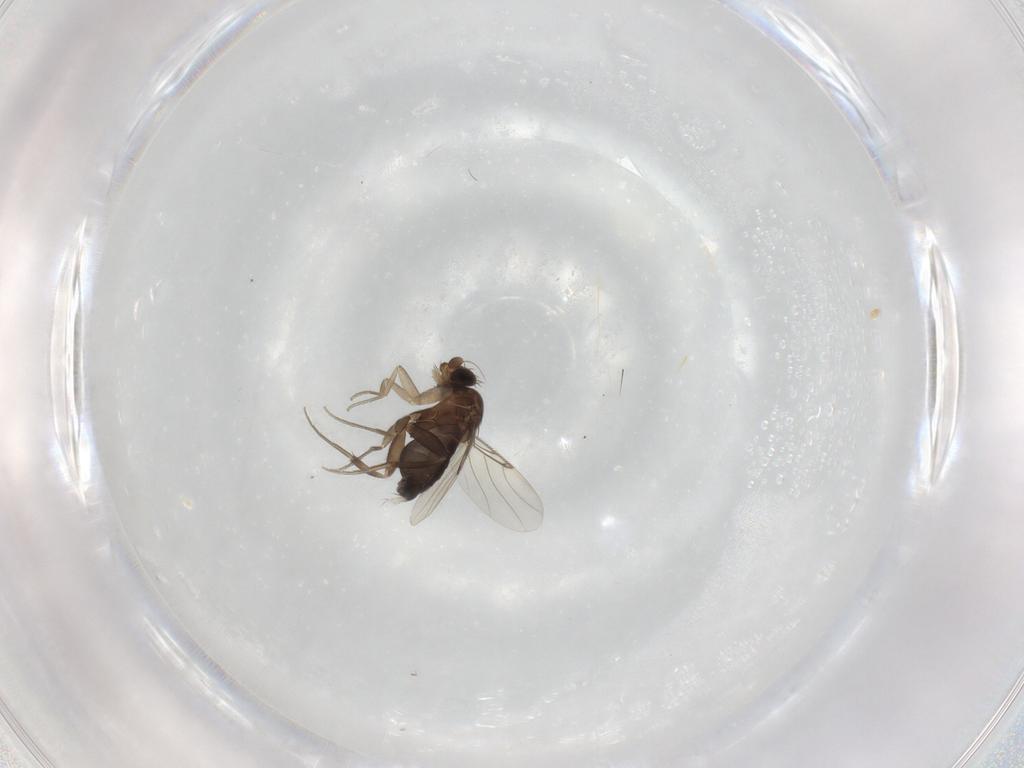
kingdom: Animalia
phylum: Arthropoda
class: Insecta
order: Diptera
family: Phoridae
